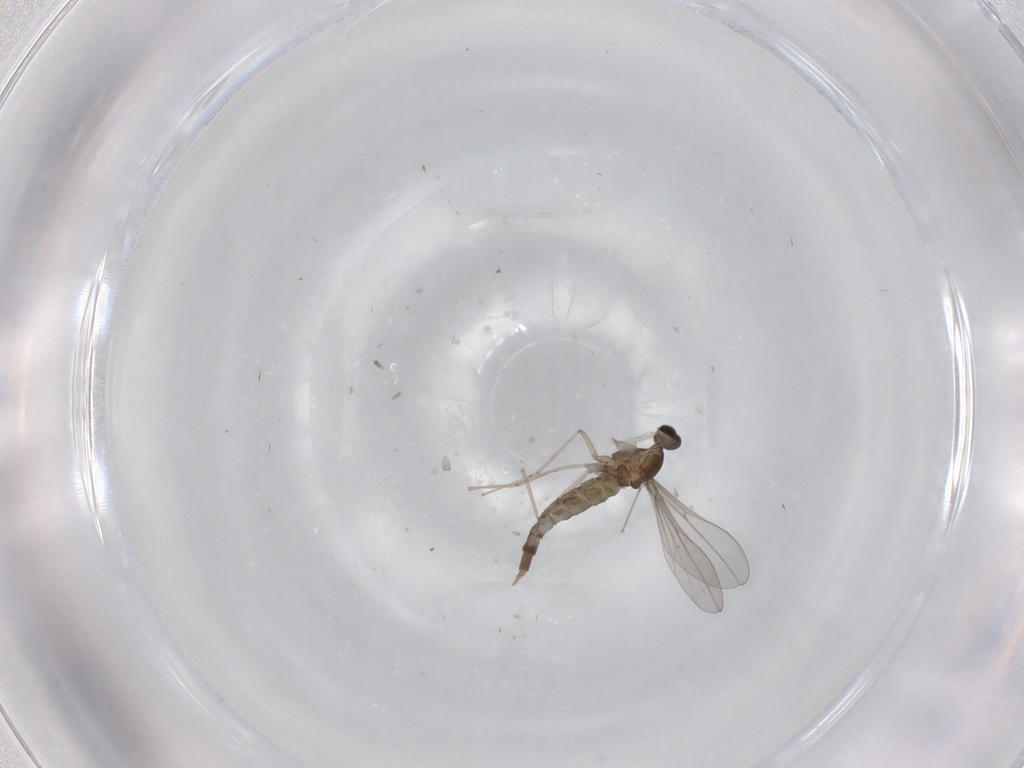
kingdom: Animalia
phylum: Arthropoda
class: Insecta
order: Diptera
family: Cecidomyiidae
